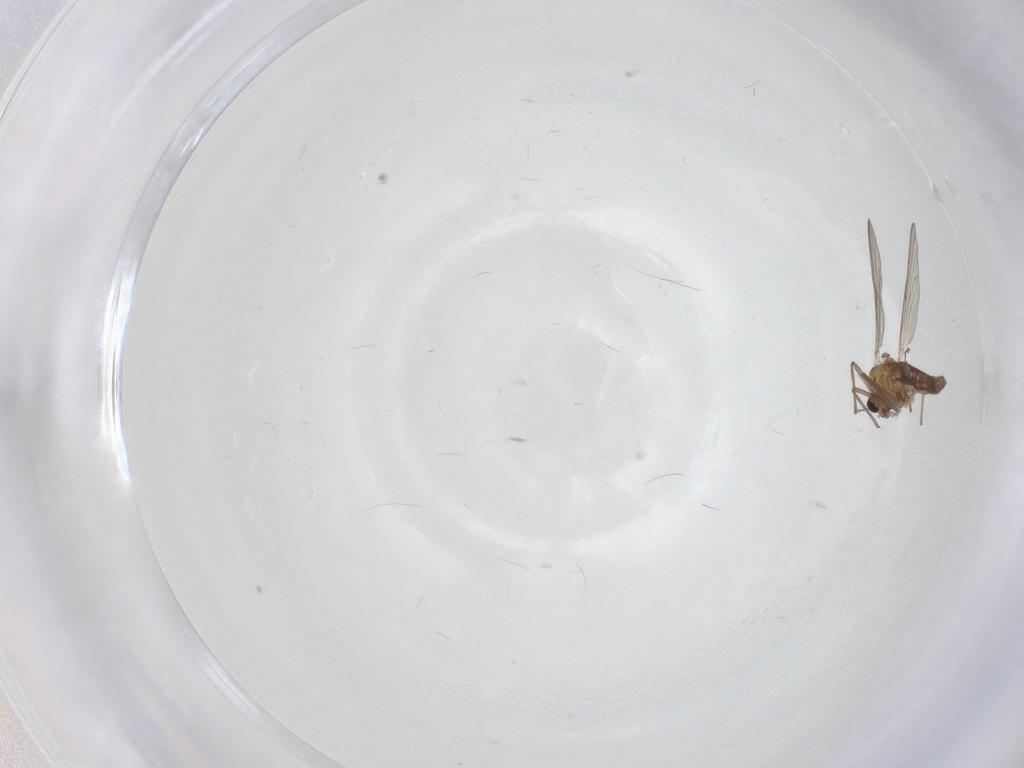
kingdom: Animalia
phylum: Arthropoda
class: Insecta
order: Diptera
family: Chironomidae
